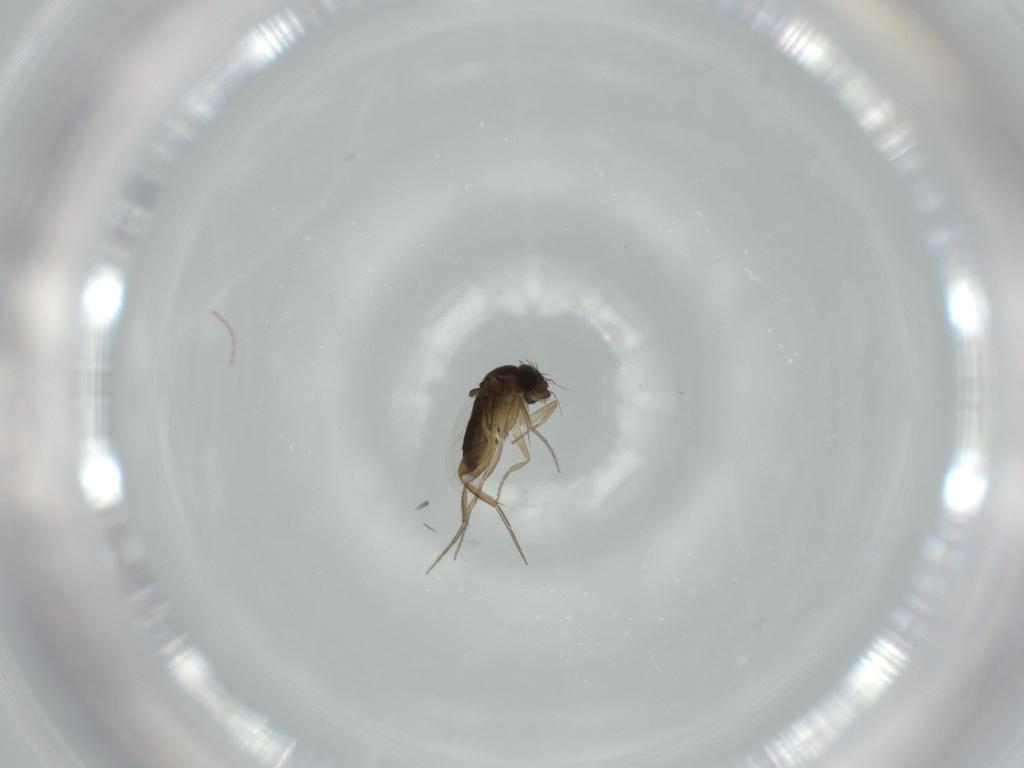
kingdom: Animalia
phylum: Arthropoda
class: Insecta
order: Diptera
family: Phoridae
